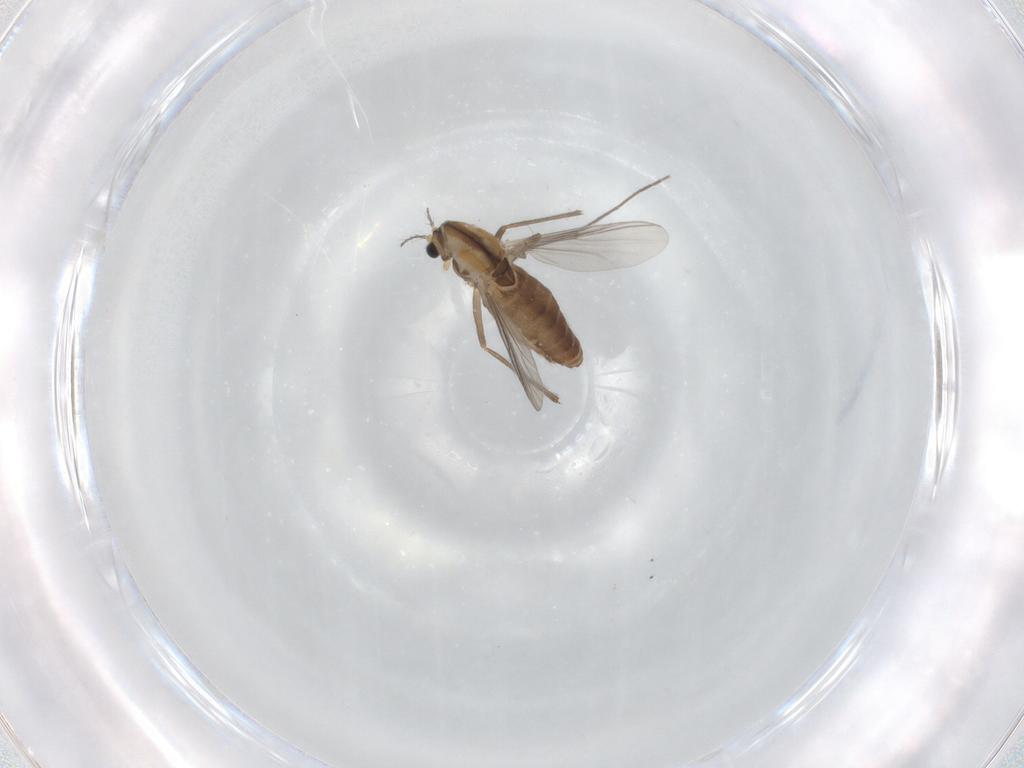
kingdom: Animalia
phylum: Arthropoda
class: Insecta
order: Diptera
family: Chironomidae
